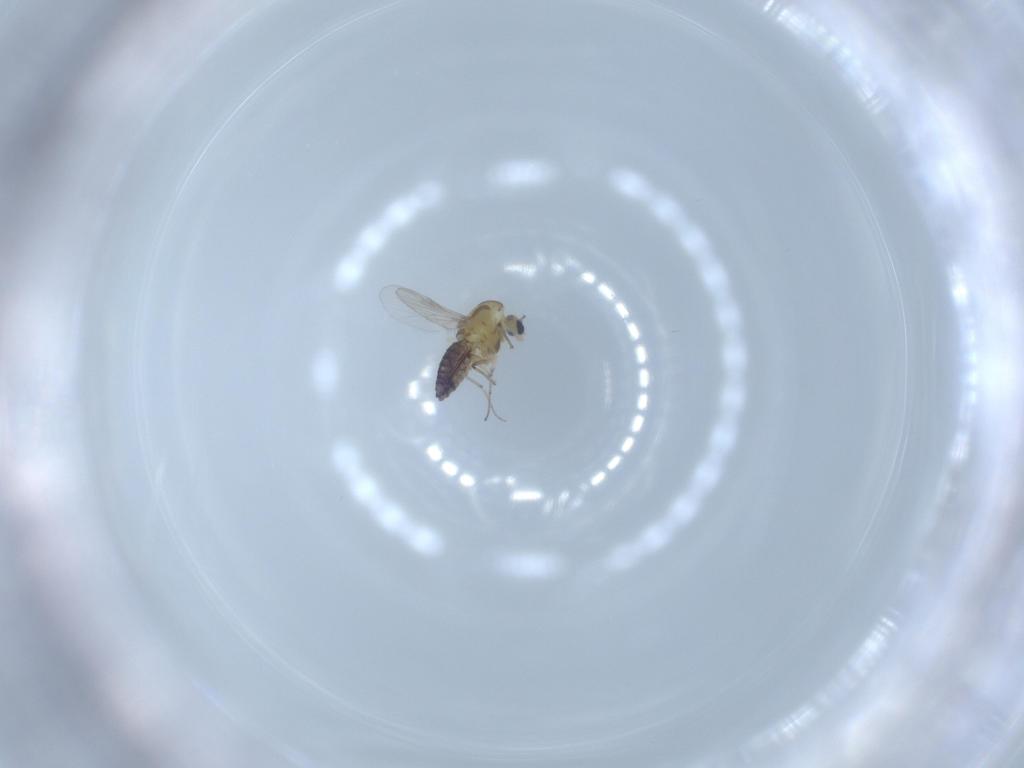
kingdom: Animalia
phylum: Arthropoda
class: Insecta
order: Diptera
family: Chironomidae
